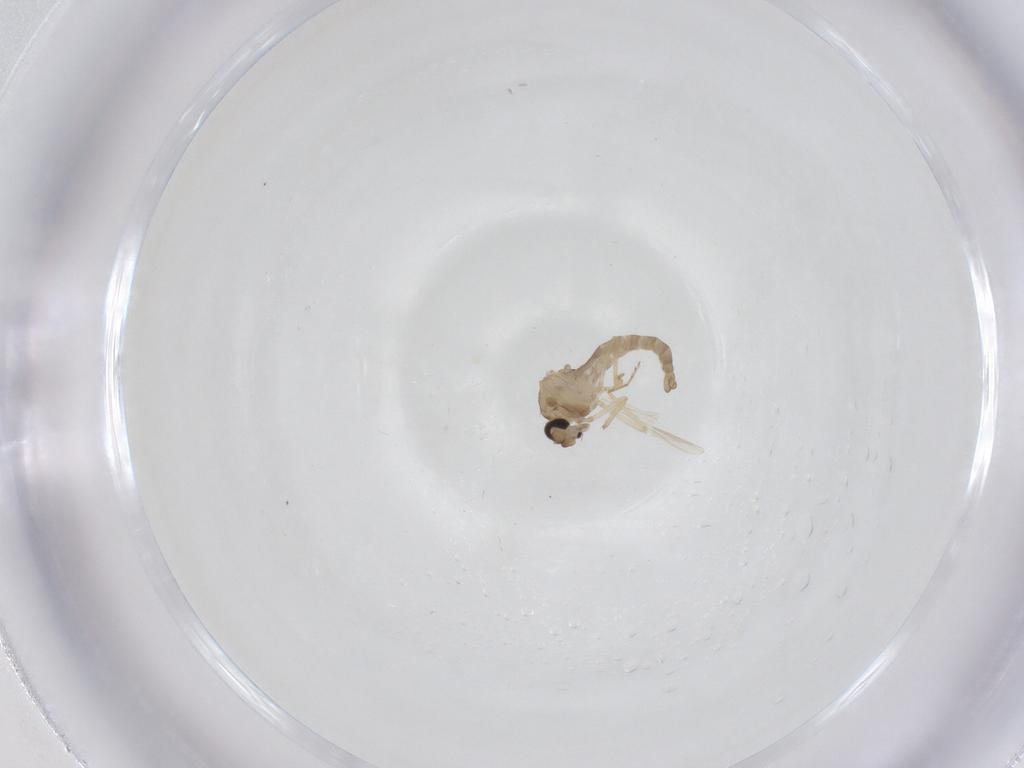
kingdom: Animalia
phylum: Arthropoda
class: Insecta
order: Diptera
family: Ceratopogonidae
